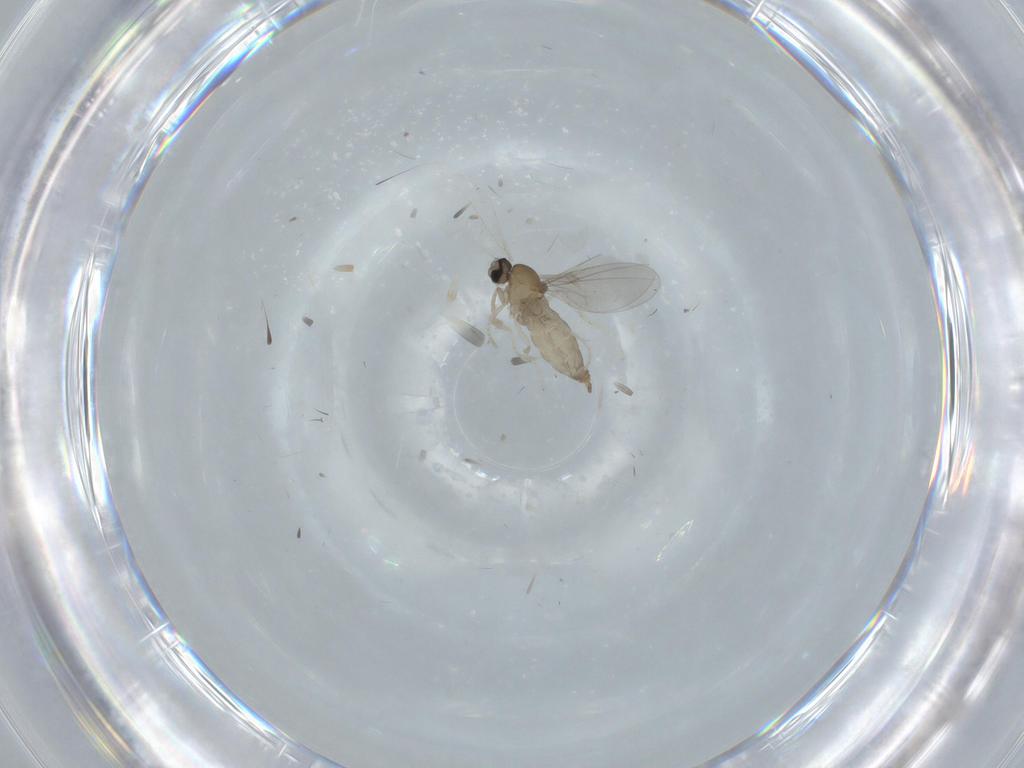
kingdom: Animalia
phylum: Arthropoda
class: Insecta
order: Diptera
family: Cecidomyiidae
